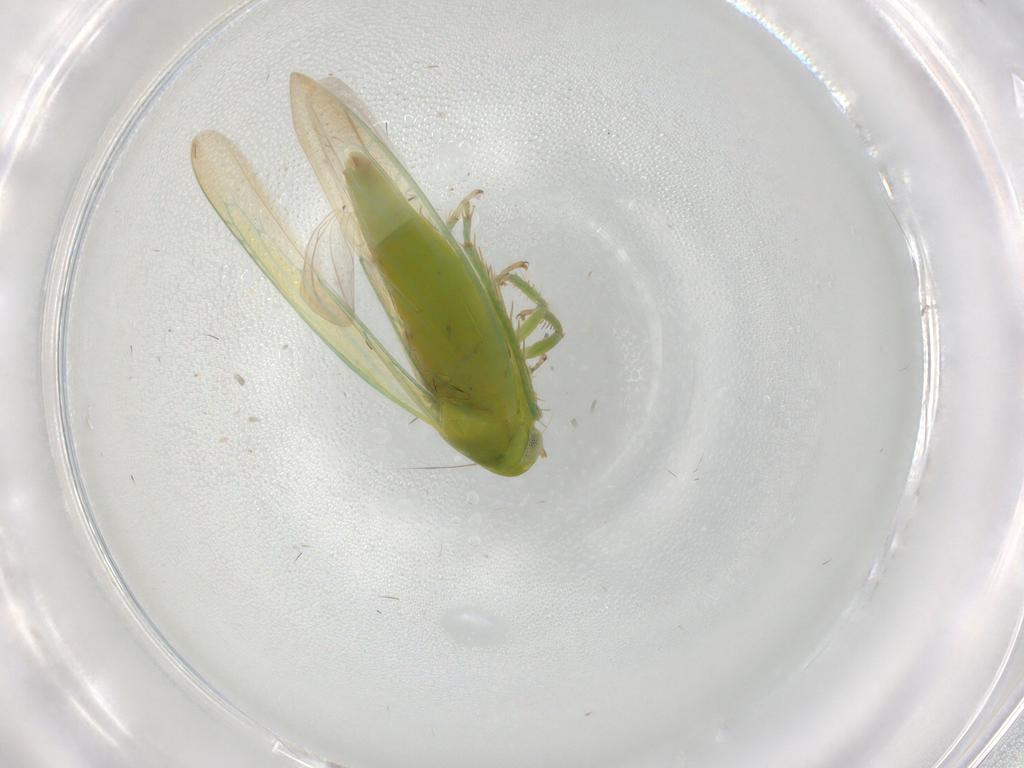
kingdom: Animalia
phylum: Arthropoda
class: Insecta
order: Hemiptera
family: Cicadellidae
